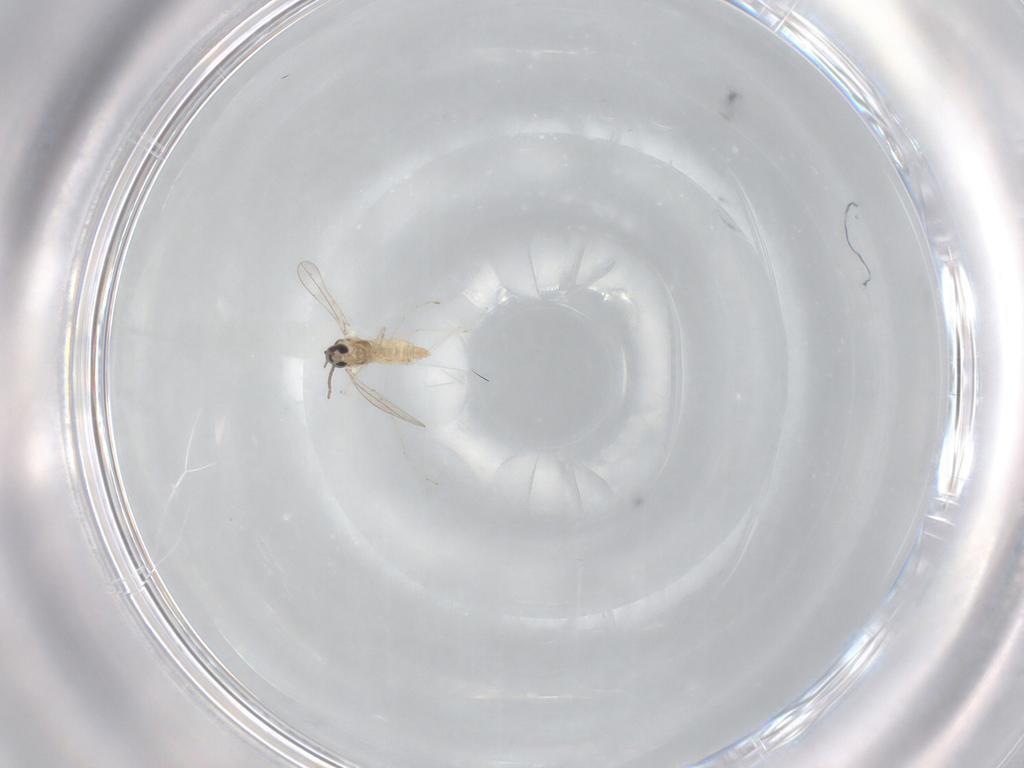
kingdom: Animalia
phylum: Arthropoda
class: Insecta
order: Diptera
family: Cecidomyiidae
